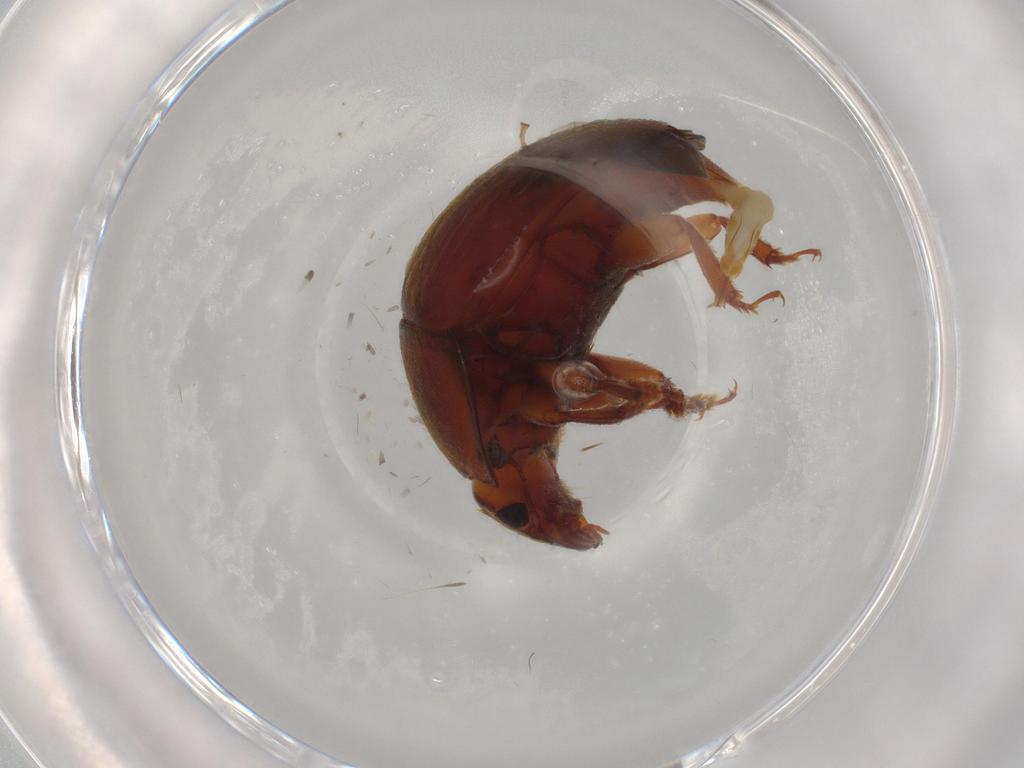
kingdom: Animalia
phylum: Arthropoda
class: Insecta
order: Coleoptera
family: Nitidulidae
